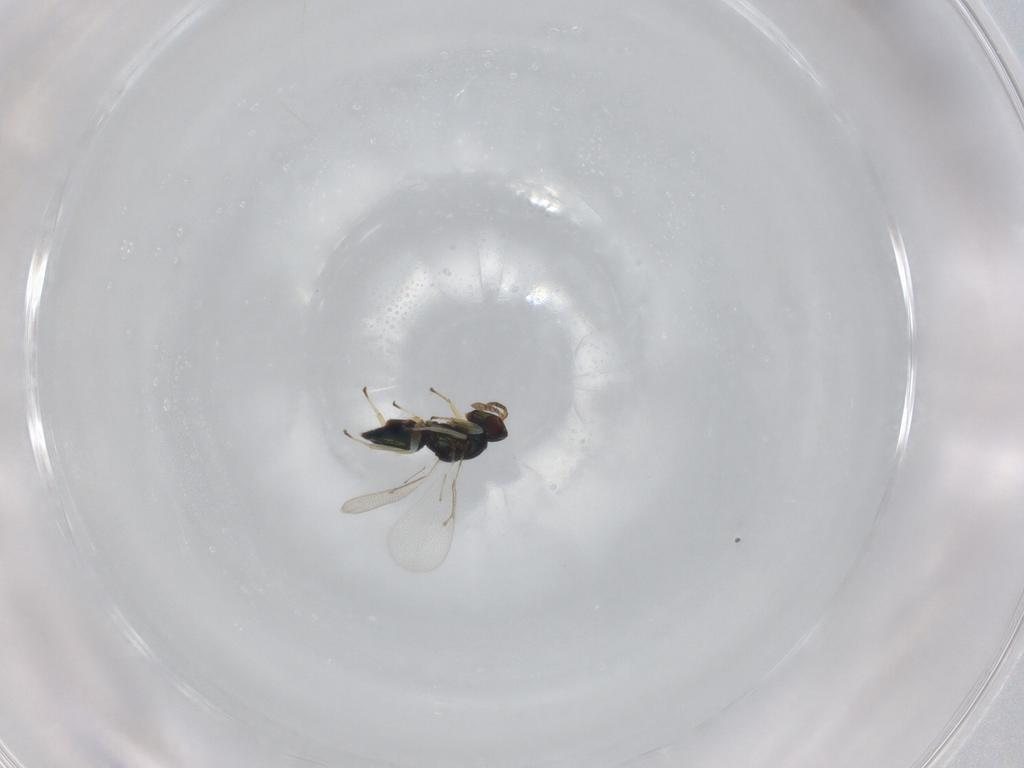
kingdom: Animalia
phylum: Arthropoda
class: Insecta
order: Hymenoptera
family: Eulophidae
